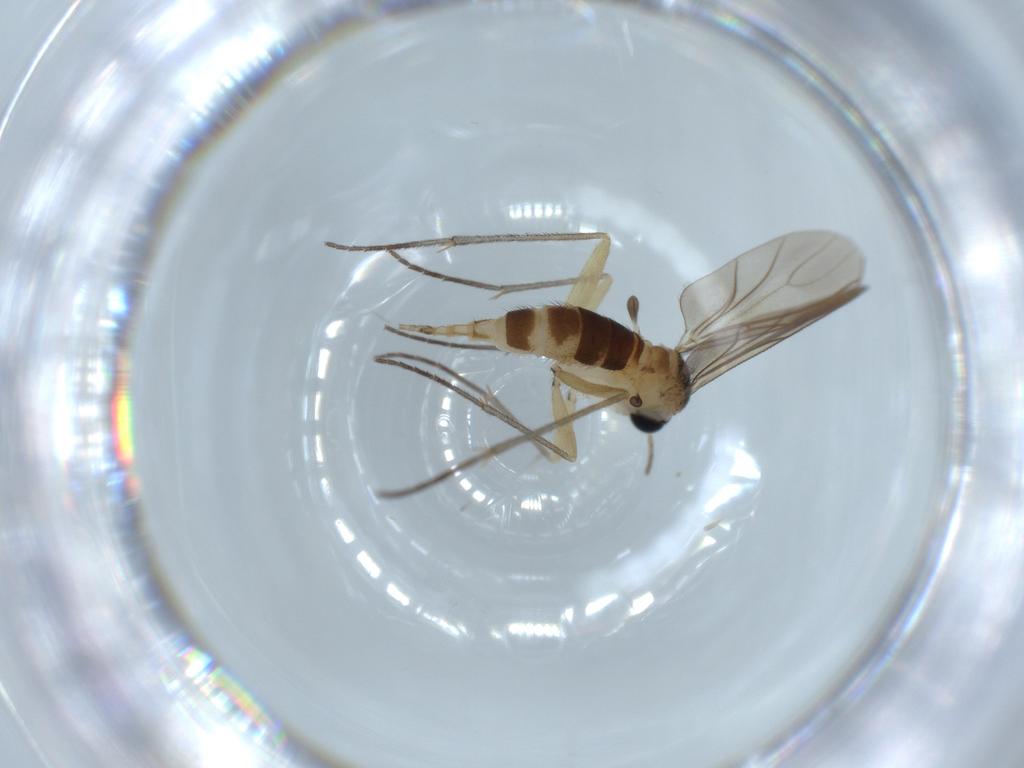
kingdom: Animalia
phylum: Arthropoda
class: Insecta
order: Diptera
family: Sciaridae
